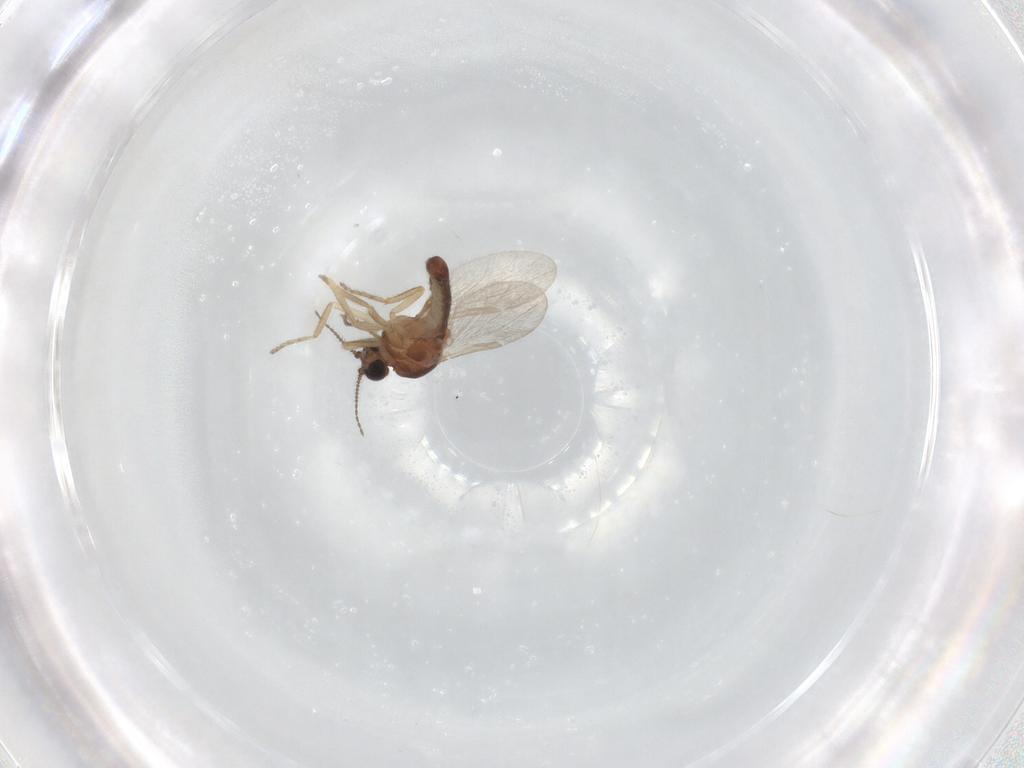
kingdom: Animalia
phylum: Arthropoda
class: Insecta
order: Diptera
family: Ceratopogonidae
